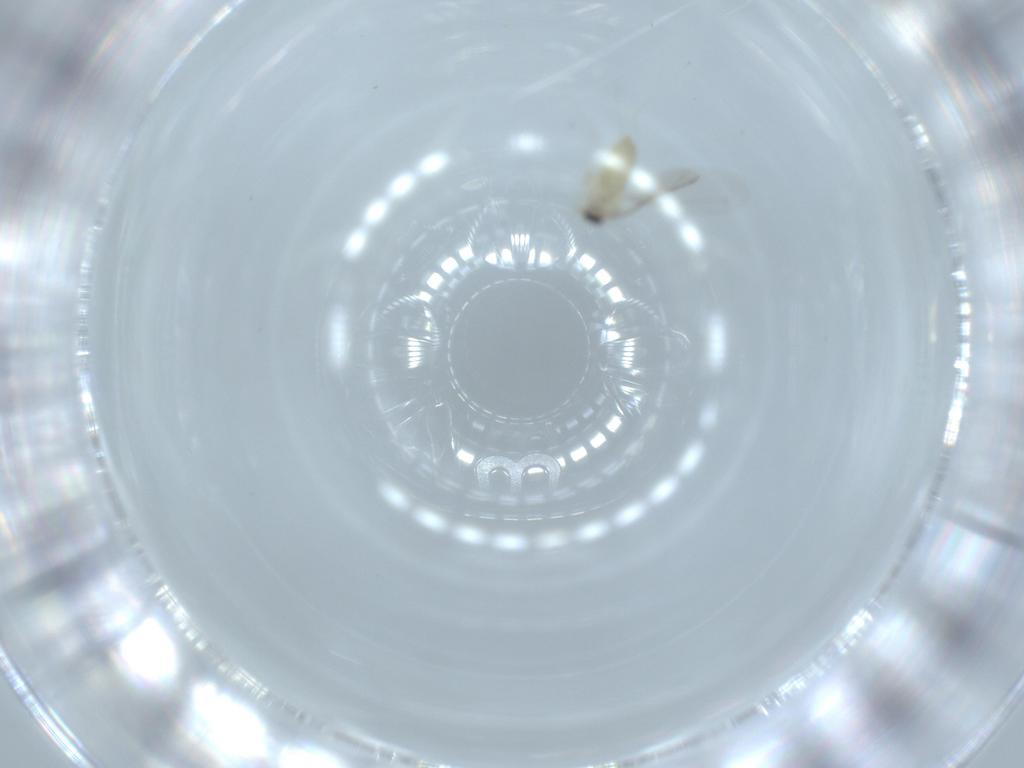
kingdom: Animalia
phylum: Arthropoda
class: Insecta
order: Diptera
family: Cecidomyiidae
